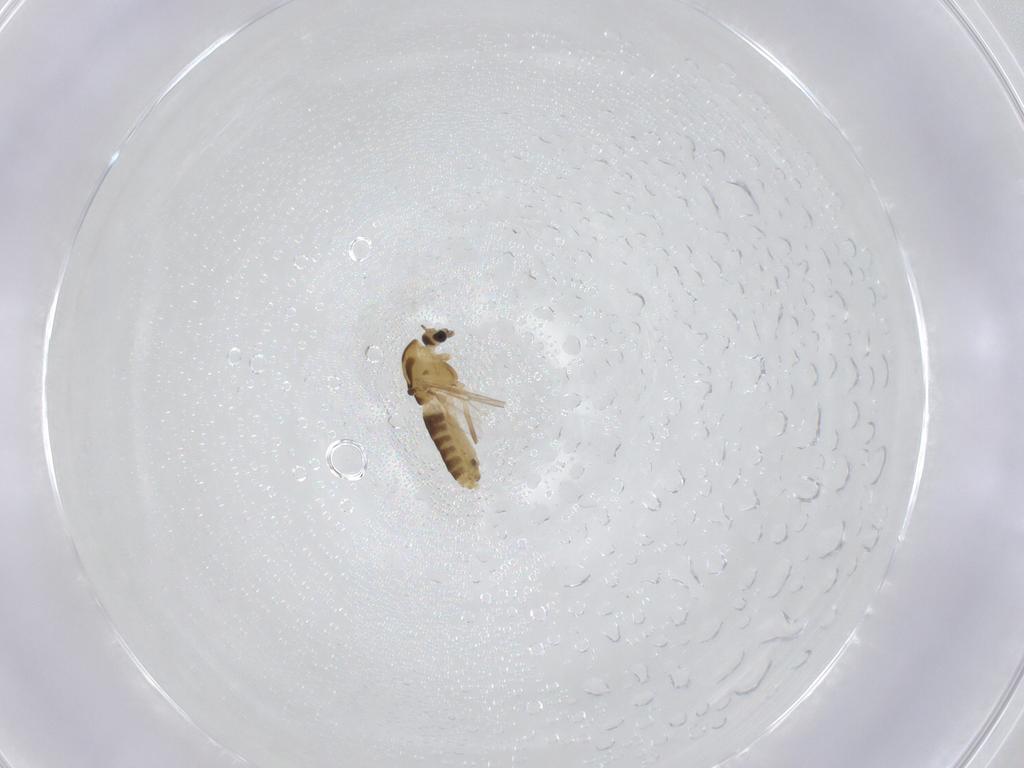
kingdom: Animalia
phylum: Arthropoda
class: Insecta
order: Diptera
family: Chironomidae
